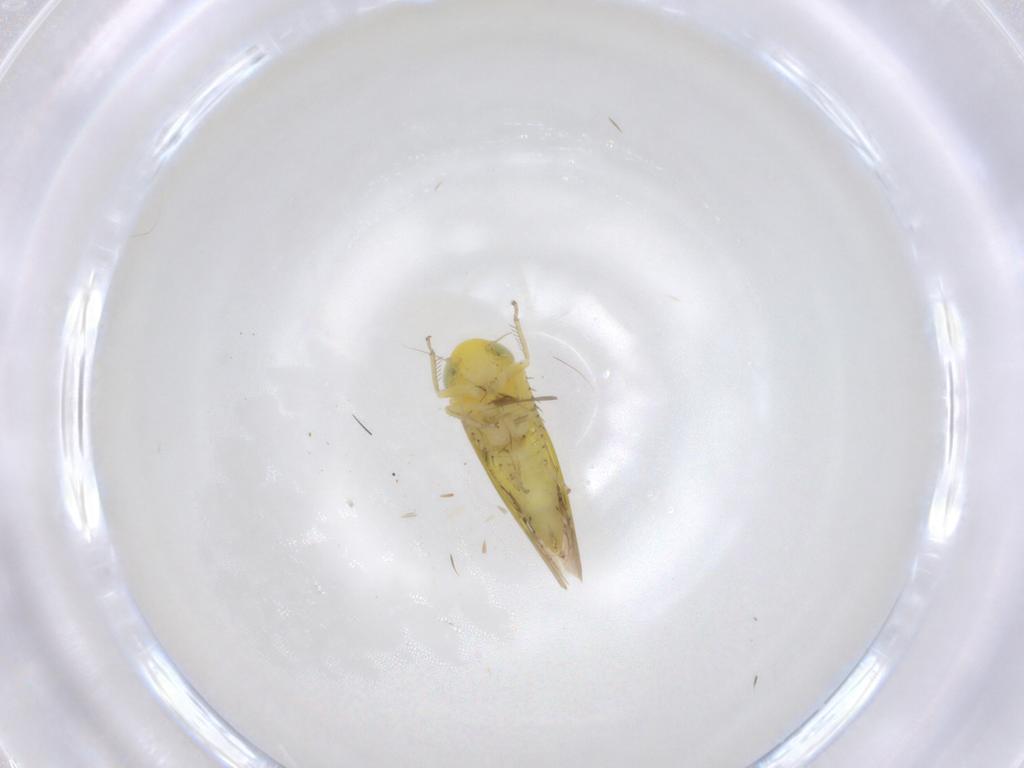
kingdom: Animalia
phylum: Arthropoda
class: Insecta
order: Hemiptera
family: Cicadellidae
